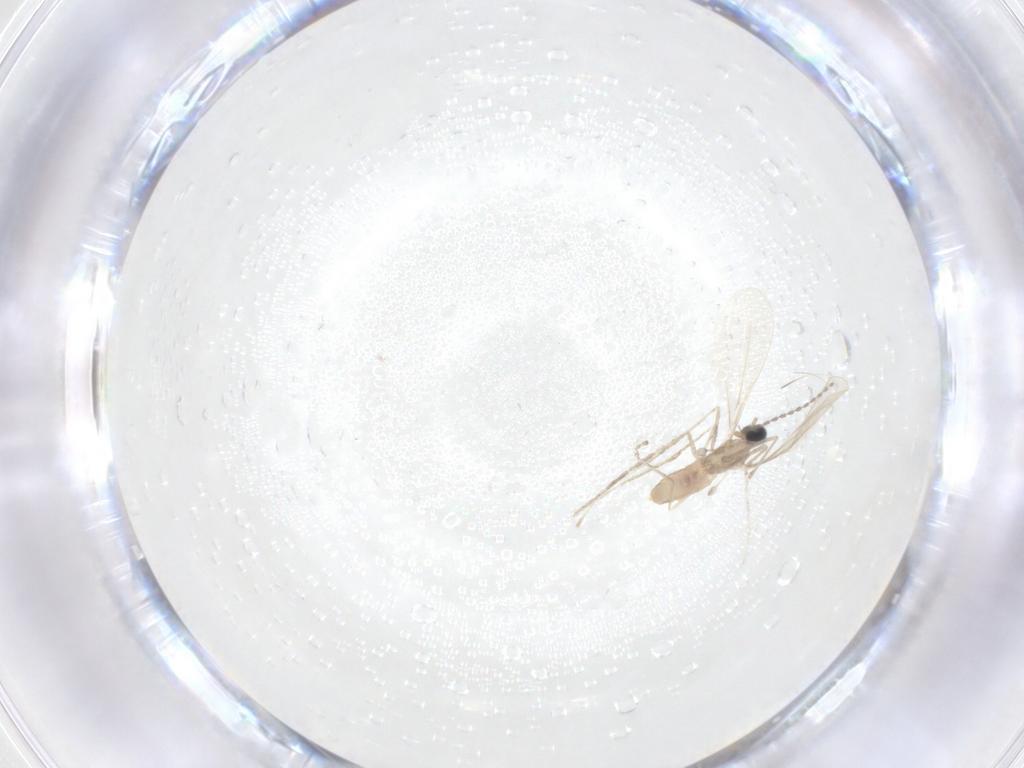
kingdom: Animalia
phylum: Arthropoda
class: Insecta
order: Diptera
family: Cecidomyiidae
